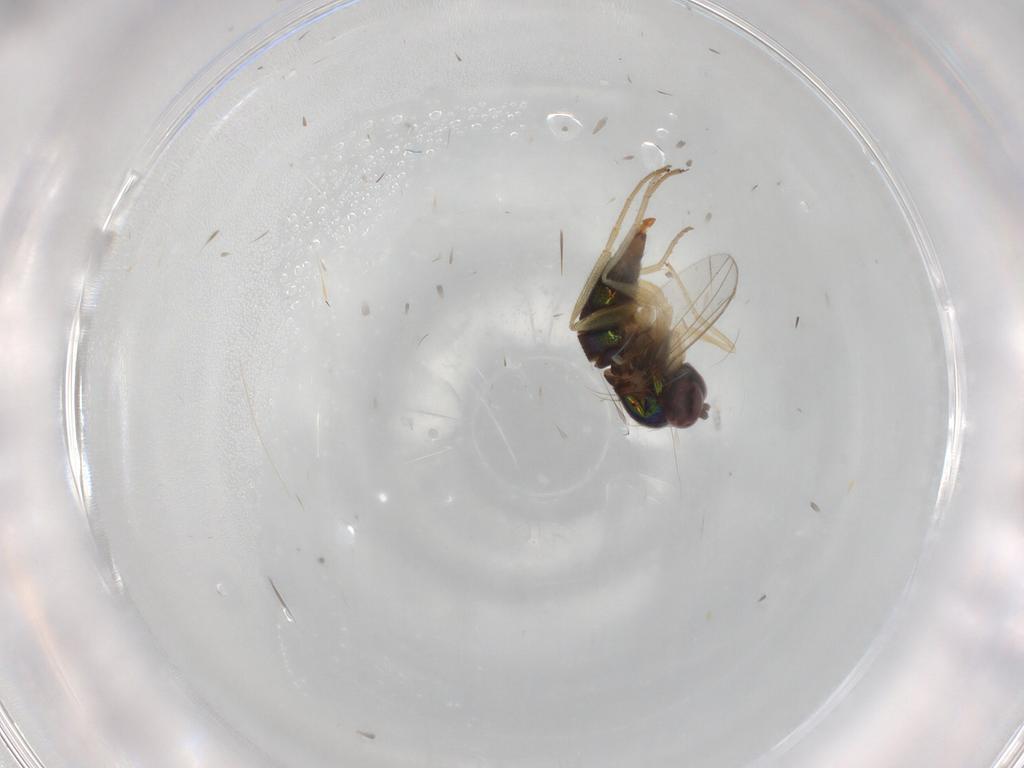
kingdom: Animalia
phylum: Arthropoda
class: Insecta
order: Diptera
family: Dolichopodidae
